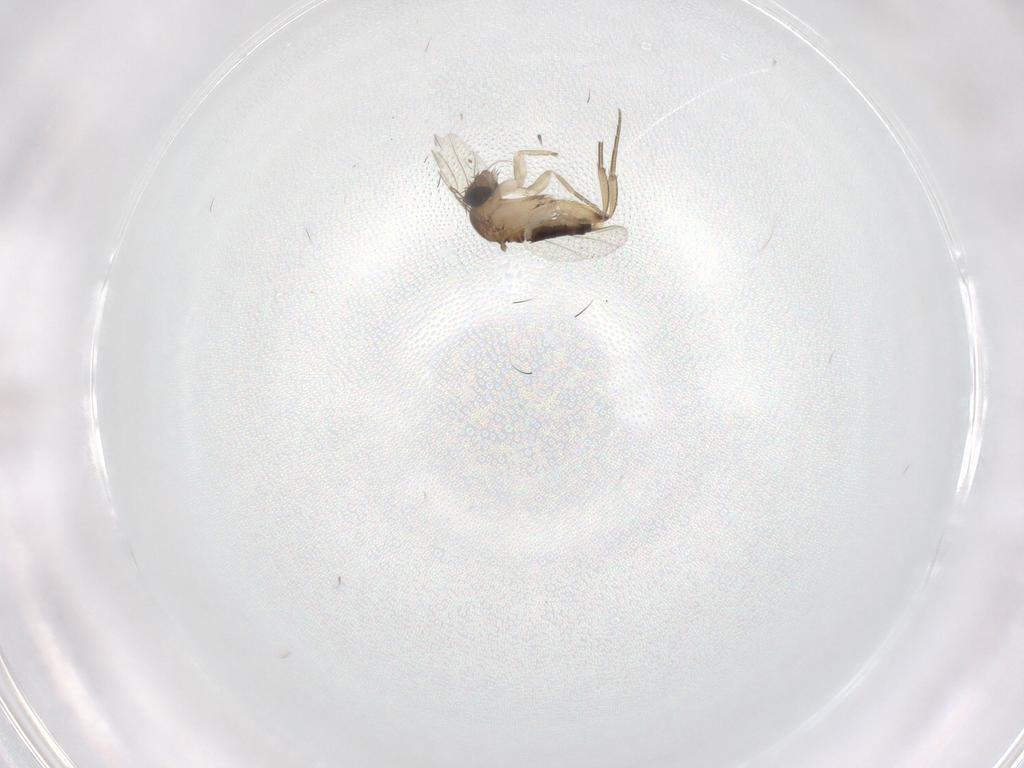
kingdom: Animalia
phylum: Arthropoda
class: Insecta
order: Diptera
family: Phoridae
